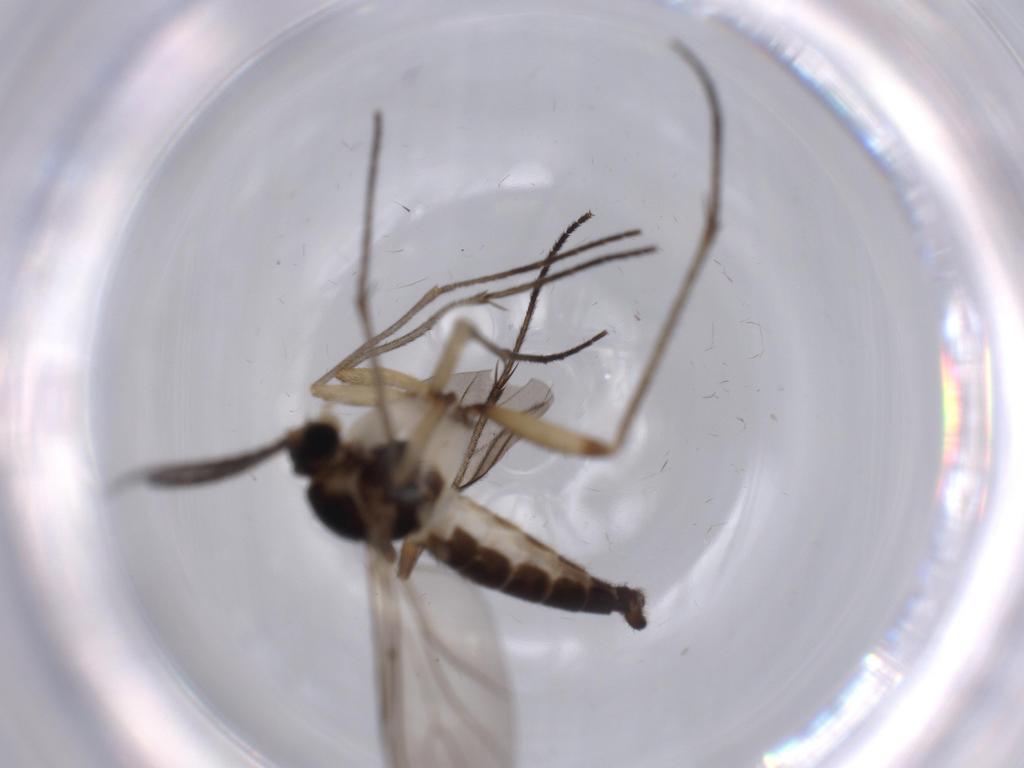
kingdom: Animalia
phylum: Arthropoda
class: Insecta
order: Diptera
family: Sciaridae
